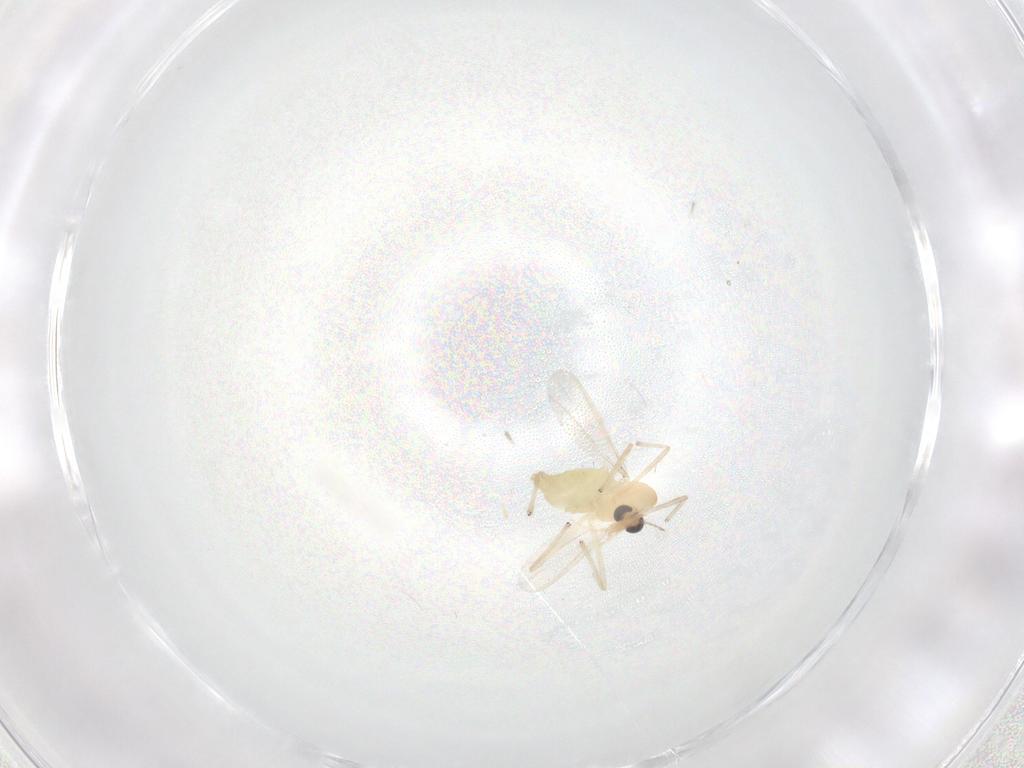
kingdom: Animalia
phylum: Arthropoda
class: Insecta
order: Diptera
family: Chironomidae
